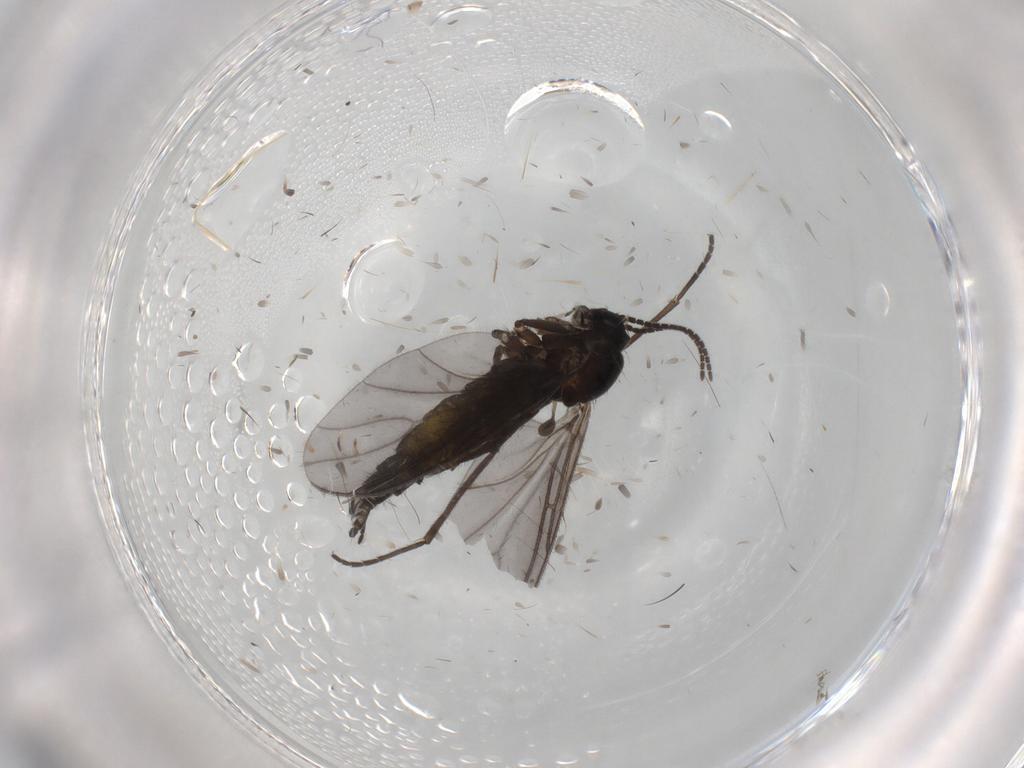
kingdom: Animalia
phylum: Arthropoda
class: Insecta
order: Diptera
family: Sciaridae
